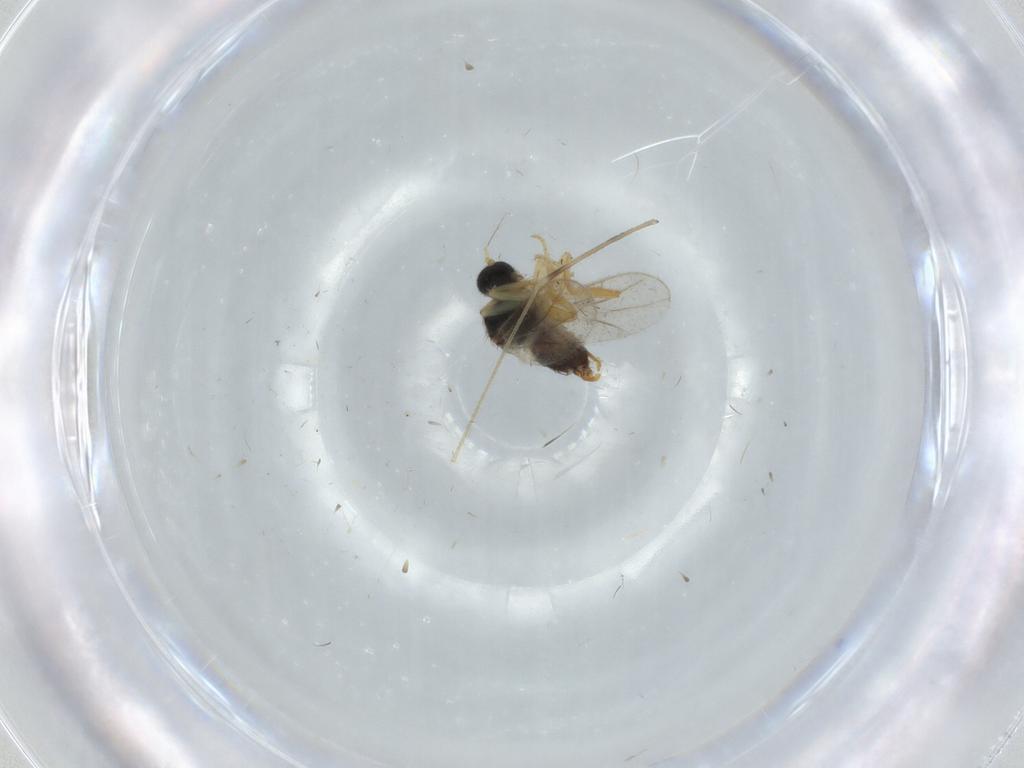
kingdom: Animalia
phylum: Arthropoda
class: Insecta
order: Diptera
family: Hybotidae
